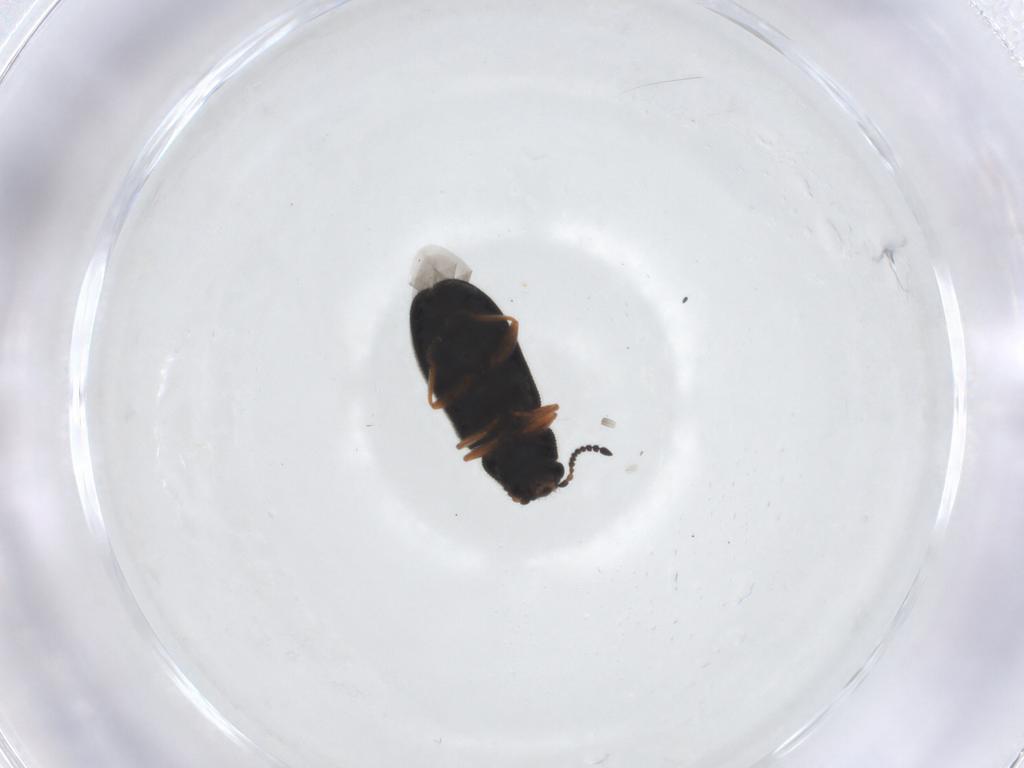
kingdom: Animalia
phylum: Arthropoda
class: Insecta
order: Coleoptera
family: Melyridae
